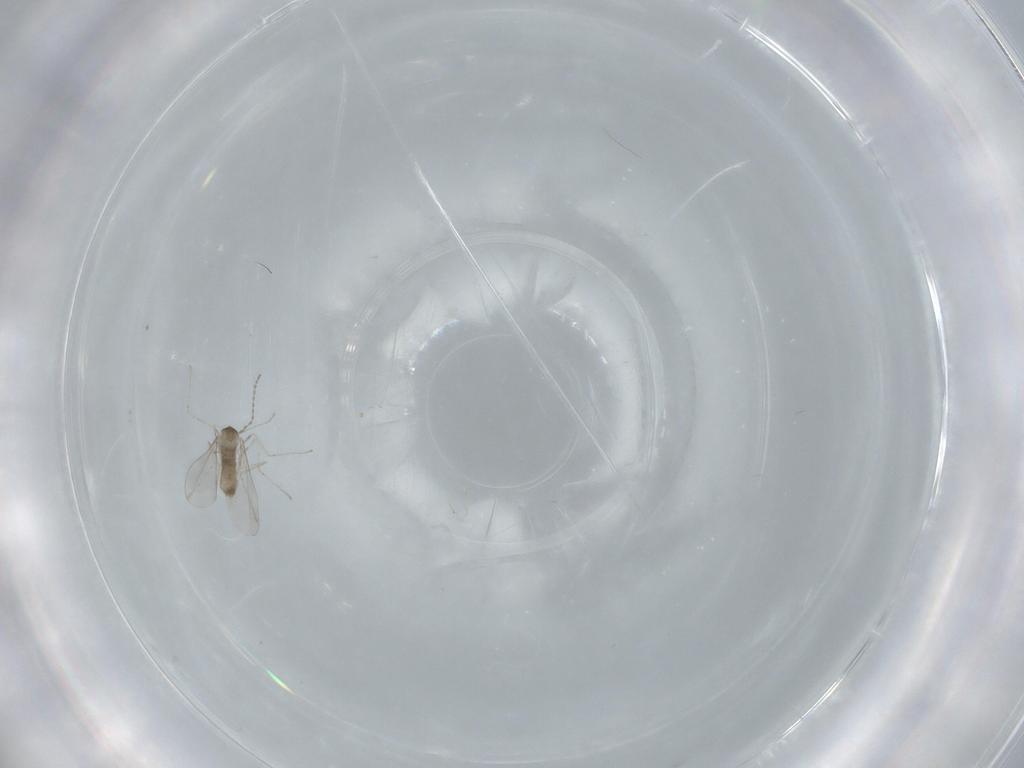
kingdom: Animalia
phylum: Arthropoda
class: Insecta
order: Diptera
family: Cecidomyiidae
